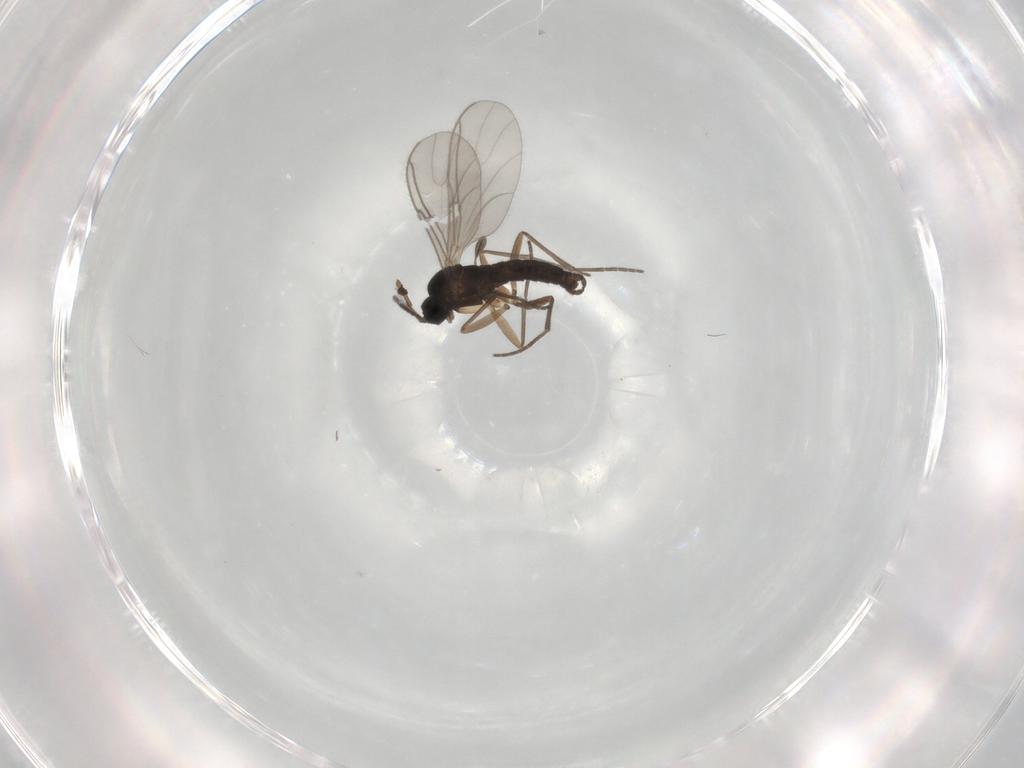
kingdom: Animalia
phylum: Arthropoda
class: Insecta
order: Diptera
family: Sciaridae
